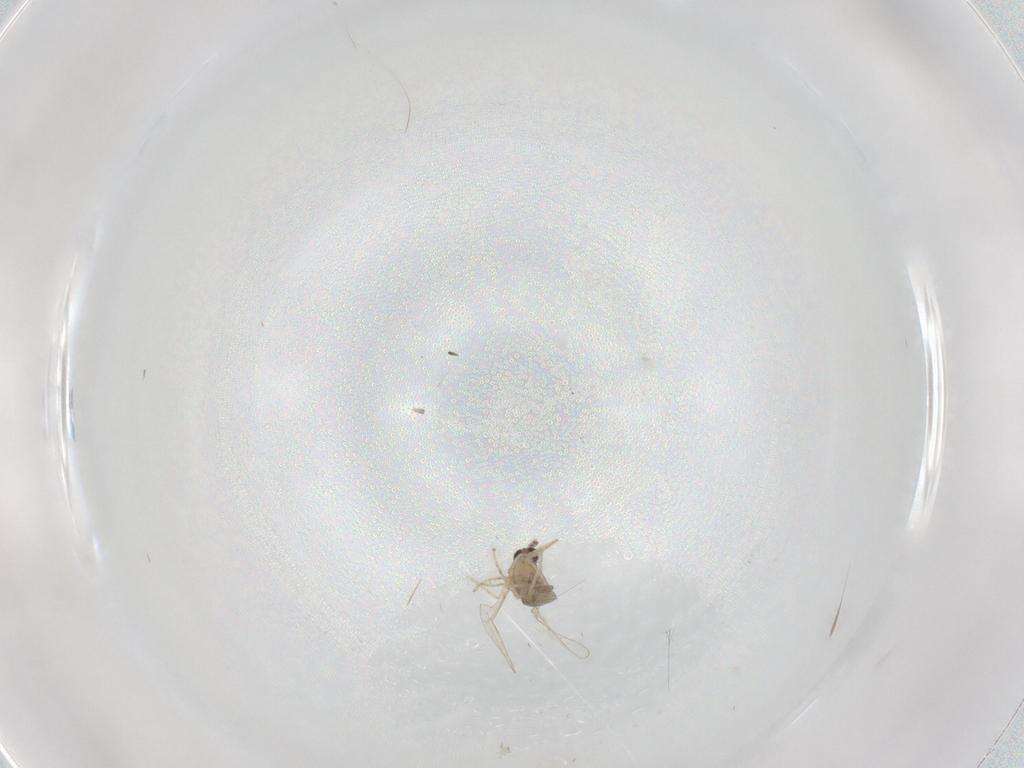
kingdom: Animalia
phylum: Arthropoda
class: Insecta
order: Diptera
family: Cecidomyiidae
